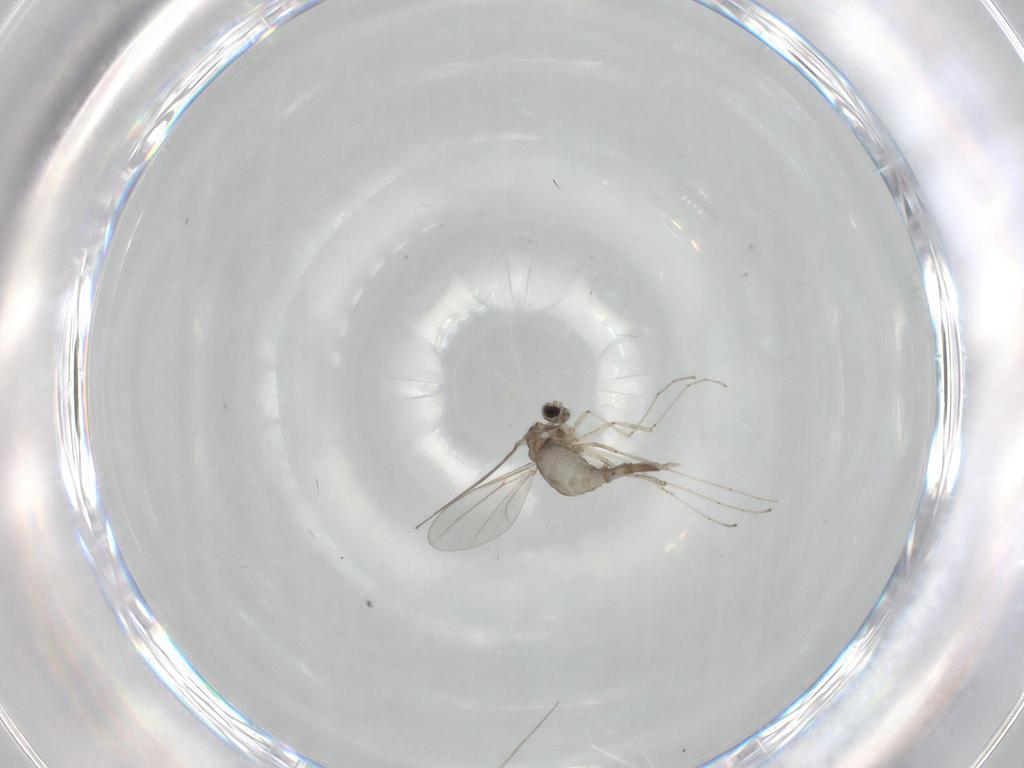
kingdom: Animalia
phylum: Arthropoda
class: Insecta
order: Diptera
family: Cecidomyiidae
